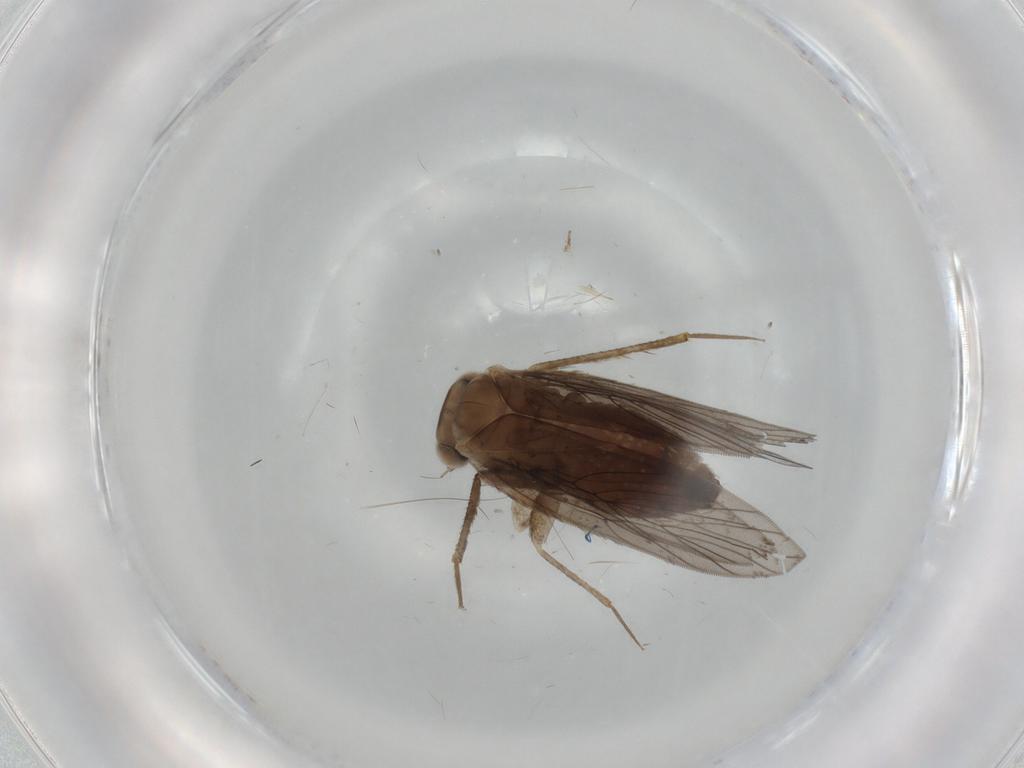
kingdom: Animalia
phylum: Arthropoda
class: Insecta
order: Psocodea
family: Lepidopsocidae
